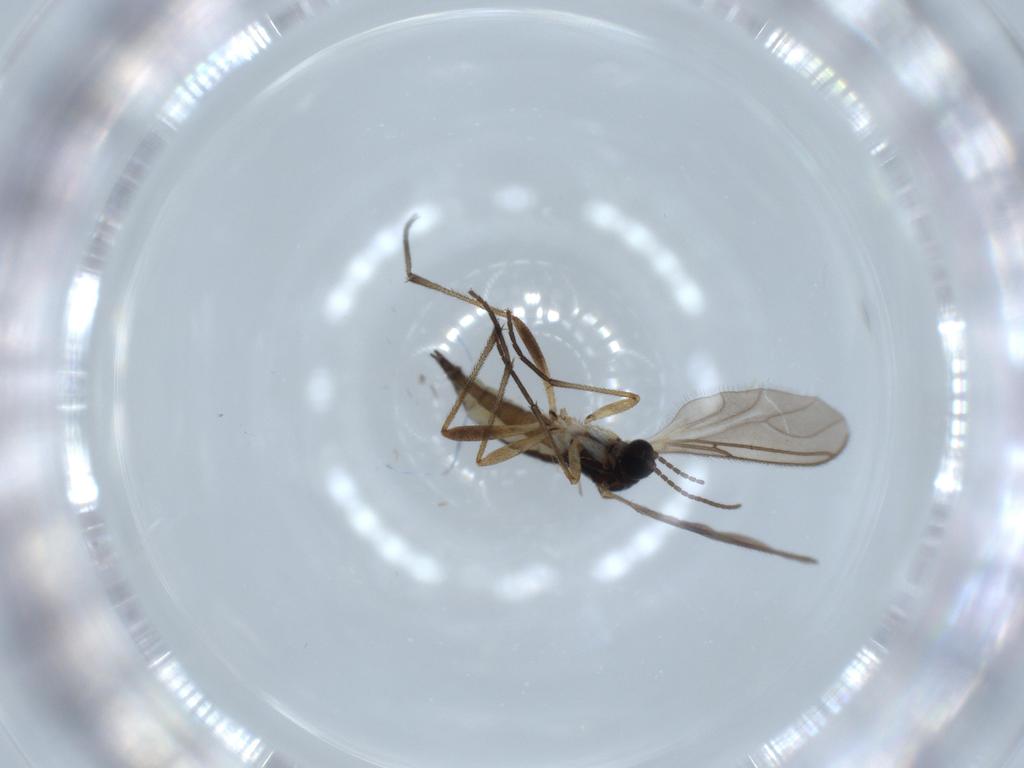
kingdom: Animalia
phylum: Arthropoda
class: Insecta
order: Diptera
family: Sciaridae
